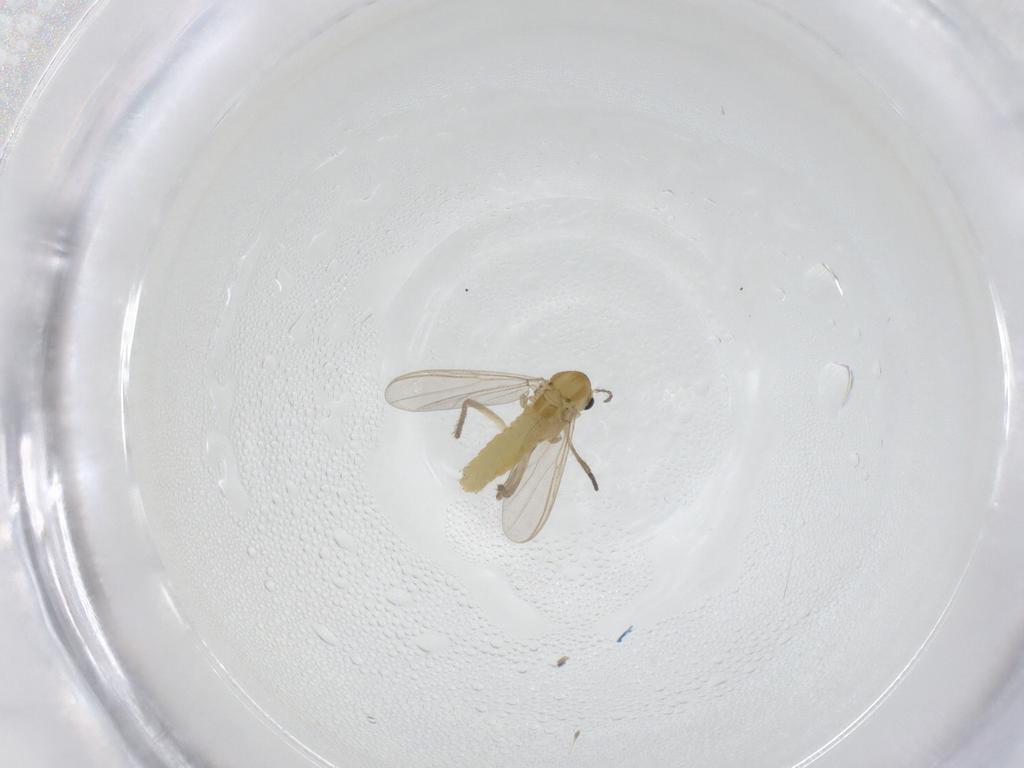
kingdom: Animalia
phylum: Arthropoda
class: Insecta
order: Diptera
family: Chironomidae
